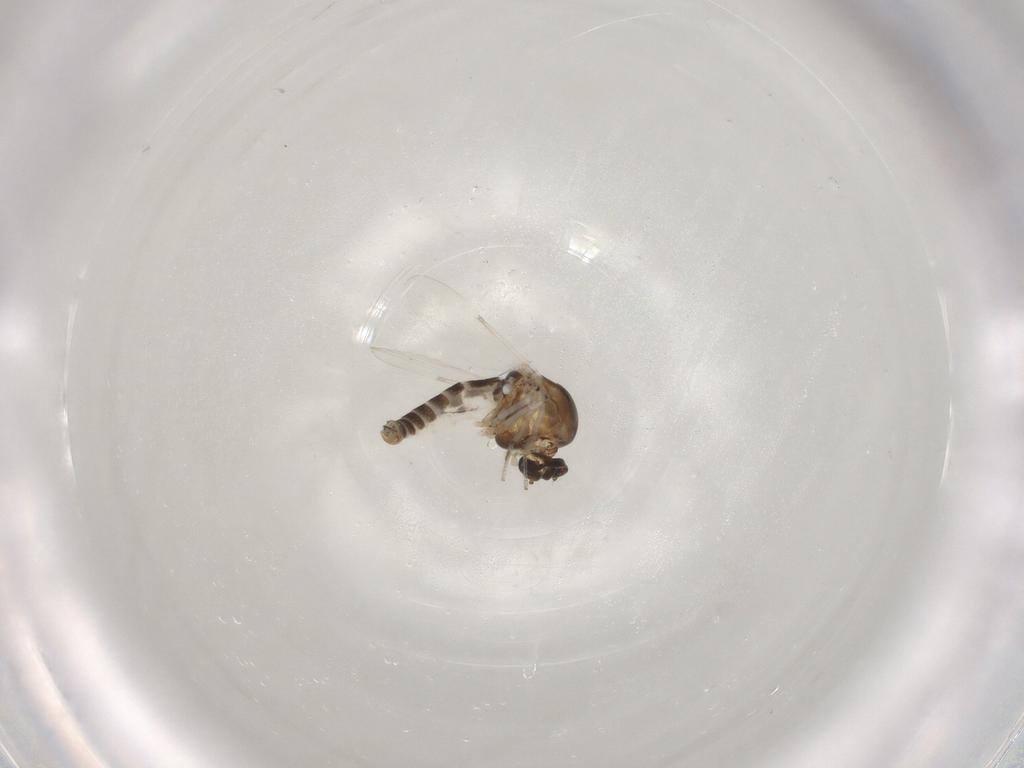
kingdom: Animalia
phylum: Arthropoda
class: Insecta
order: Diptera
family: Ceratopogonidae
